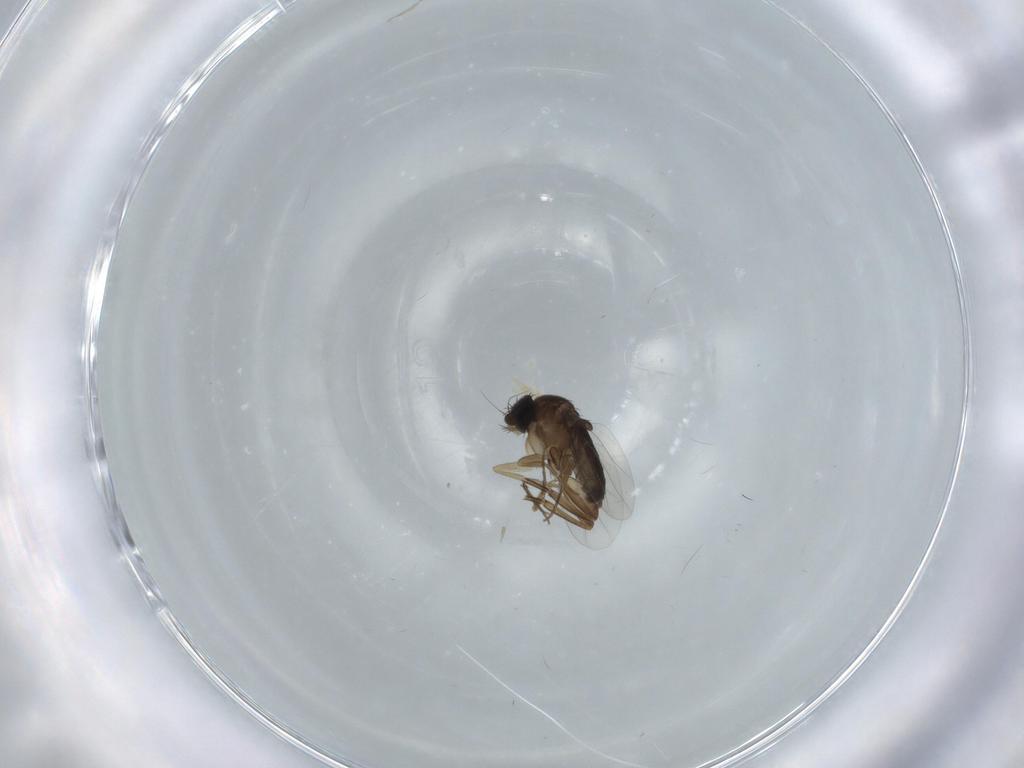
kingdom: Animalia
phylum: Arthropoda
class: Insecta
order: Diptera
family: Phoridae
